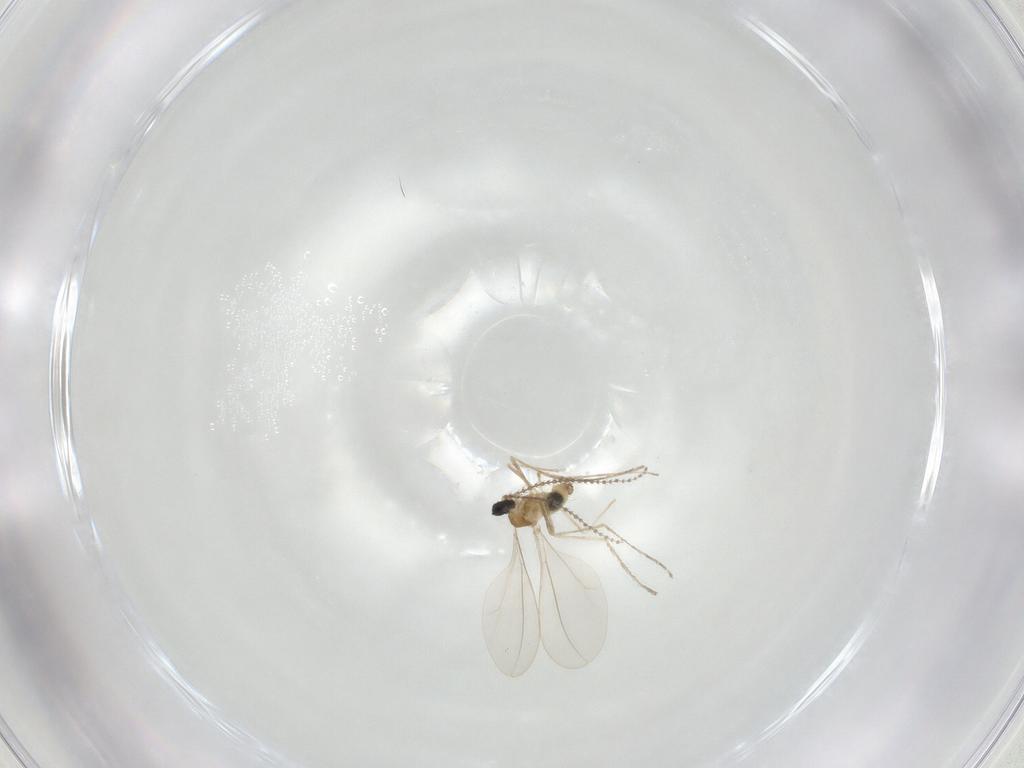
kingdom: Animalia
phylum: Arthropoda
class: Insecta
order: Diptera
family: Cecidomyiidae
